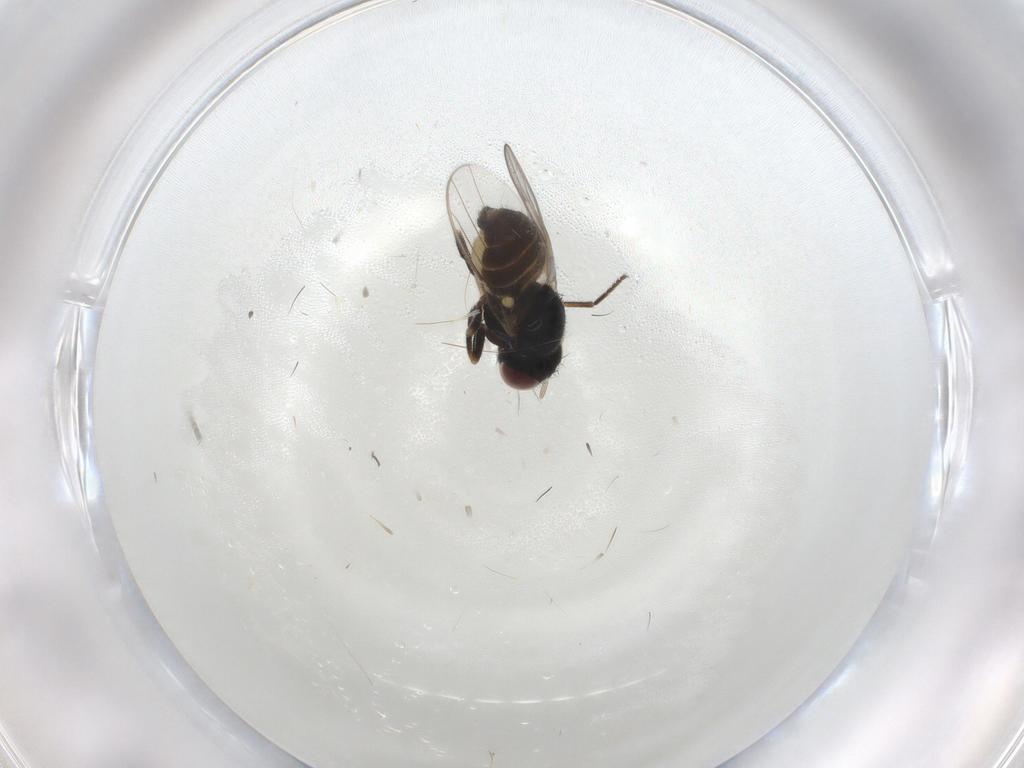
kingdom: Animalia
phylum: Arthropoda
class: Insecta
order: Diptera
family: Chloropidae
